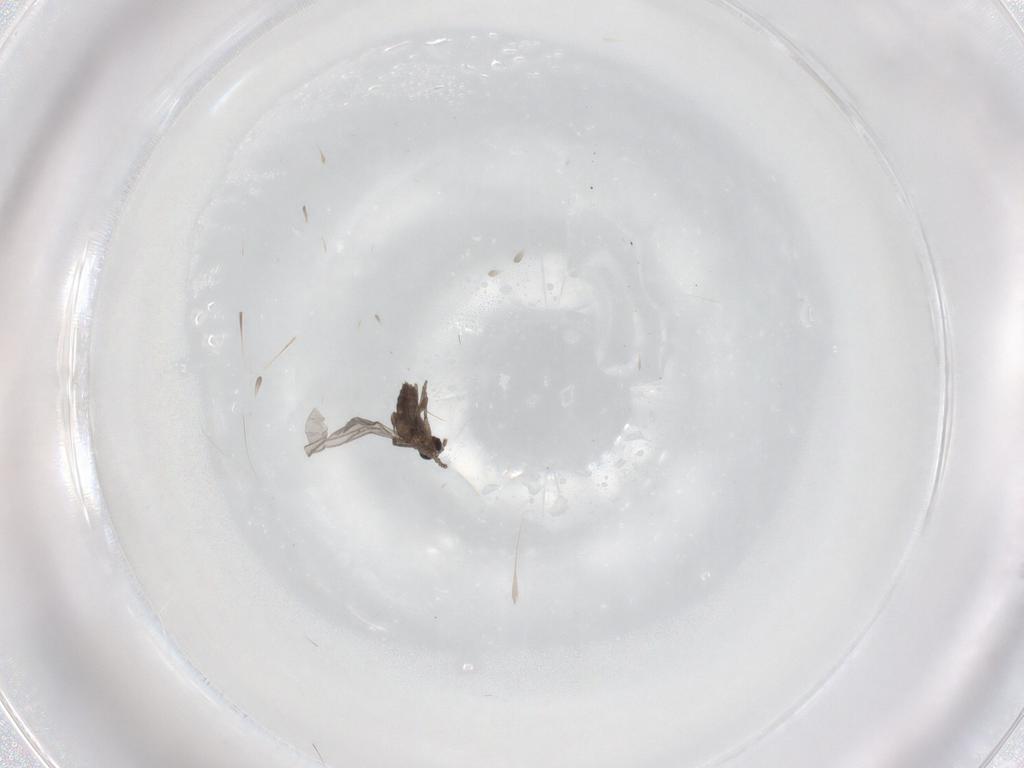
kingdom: Animalia
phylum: Arthropoda
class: Insecta
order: Diptera
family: Sciaridae
